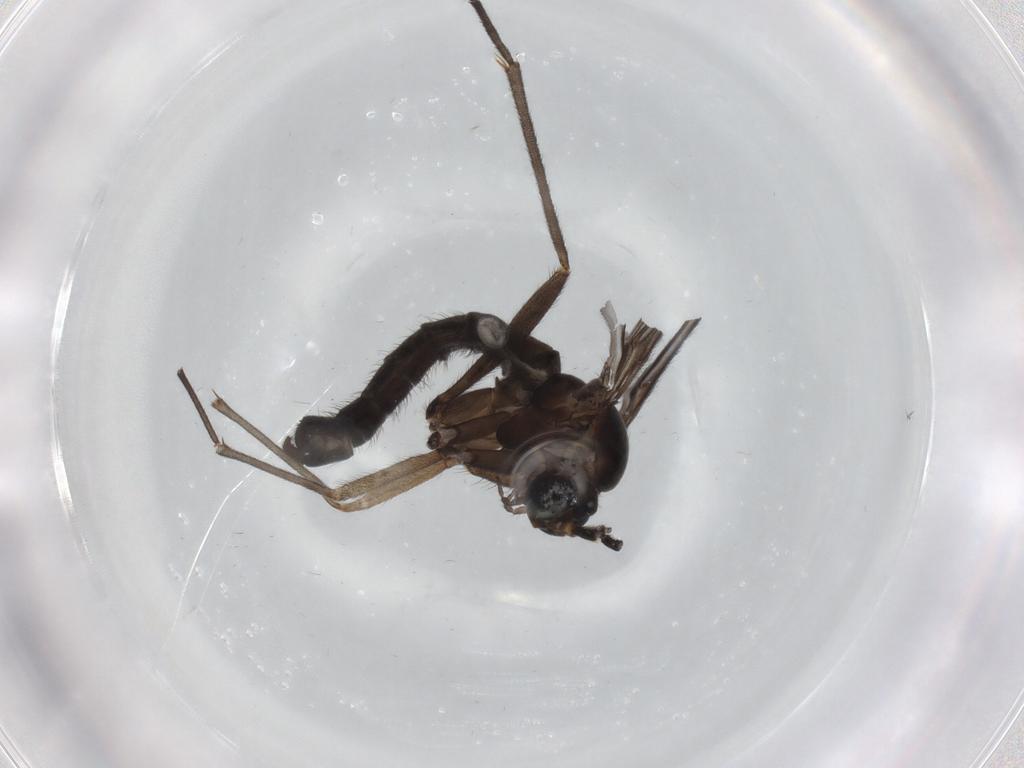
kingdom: Animalia
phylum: Arthropoda
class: Insecta
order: Diptera
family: Sciaridae
